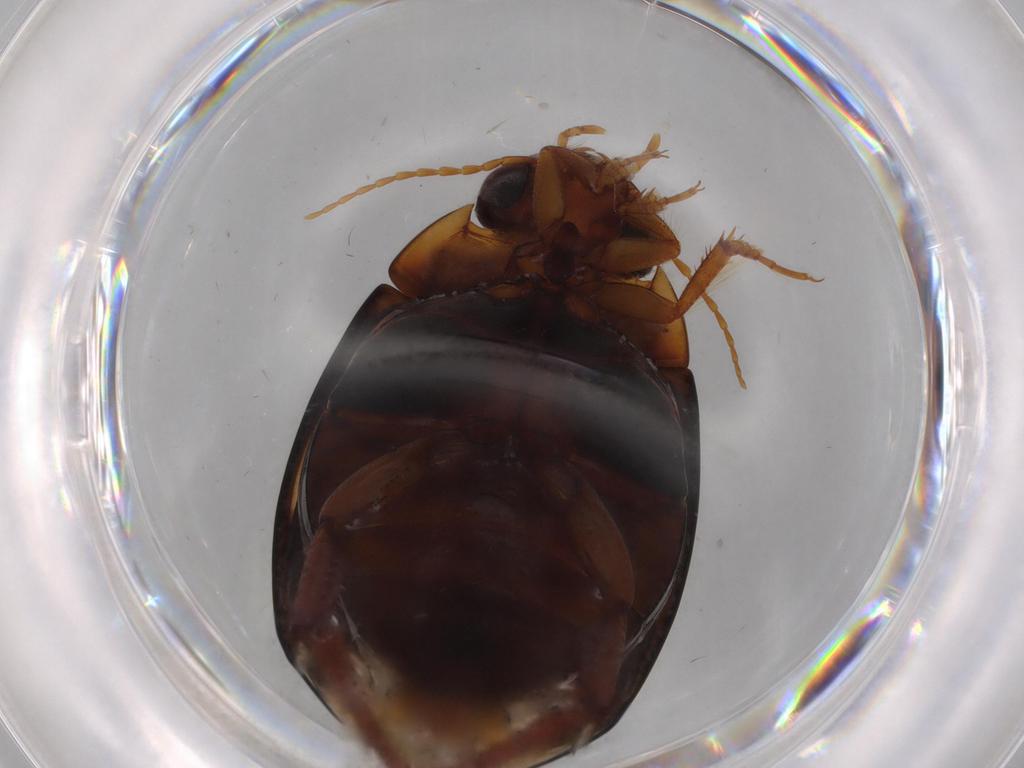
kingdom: Animalia
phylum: Arthropoda
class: Insecta
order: Coleoptera
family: Dytiscidae
